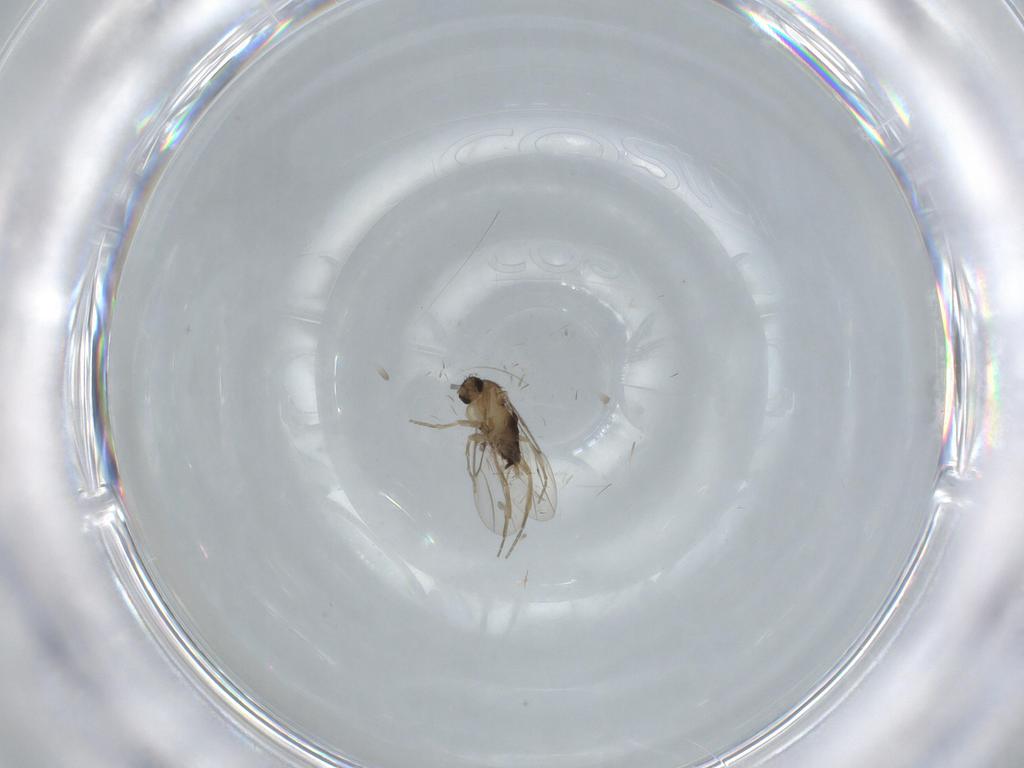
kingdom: Animalia
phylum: Arthropoda
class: Insecta
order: Diptera
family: Phoridae
